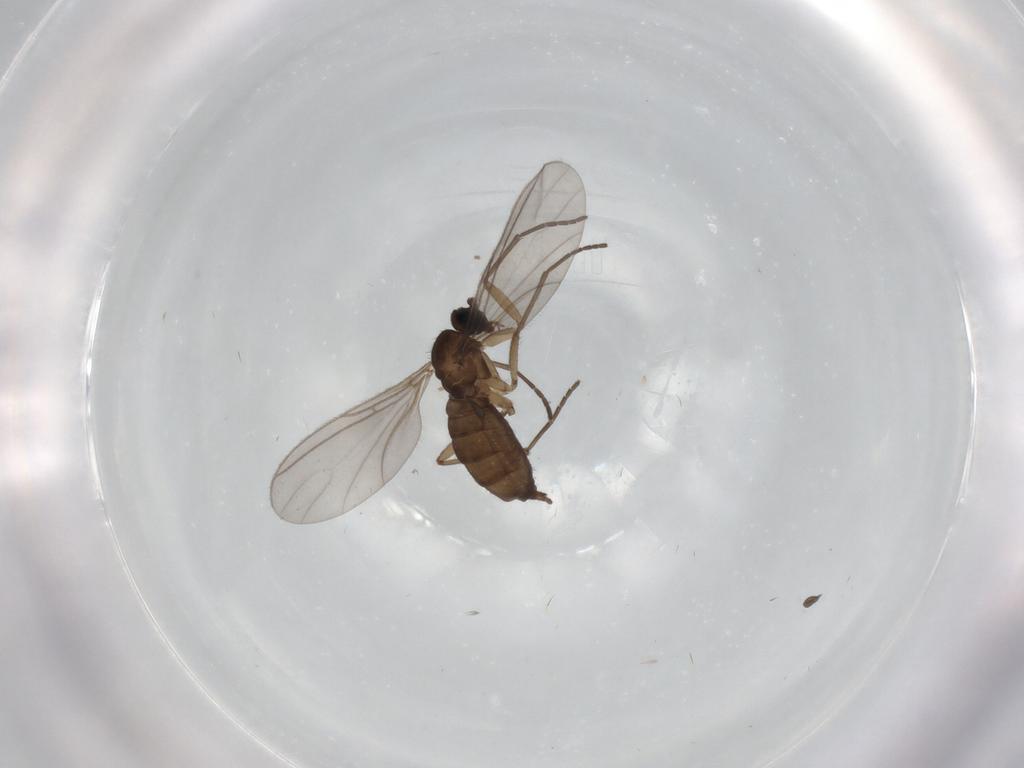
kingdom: Animalia
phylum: Arthropoda
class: Insecta
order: Diptera
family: Sciaridae
